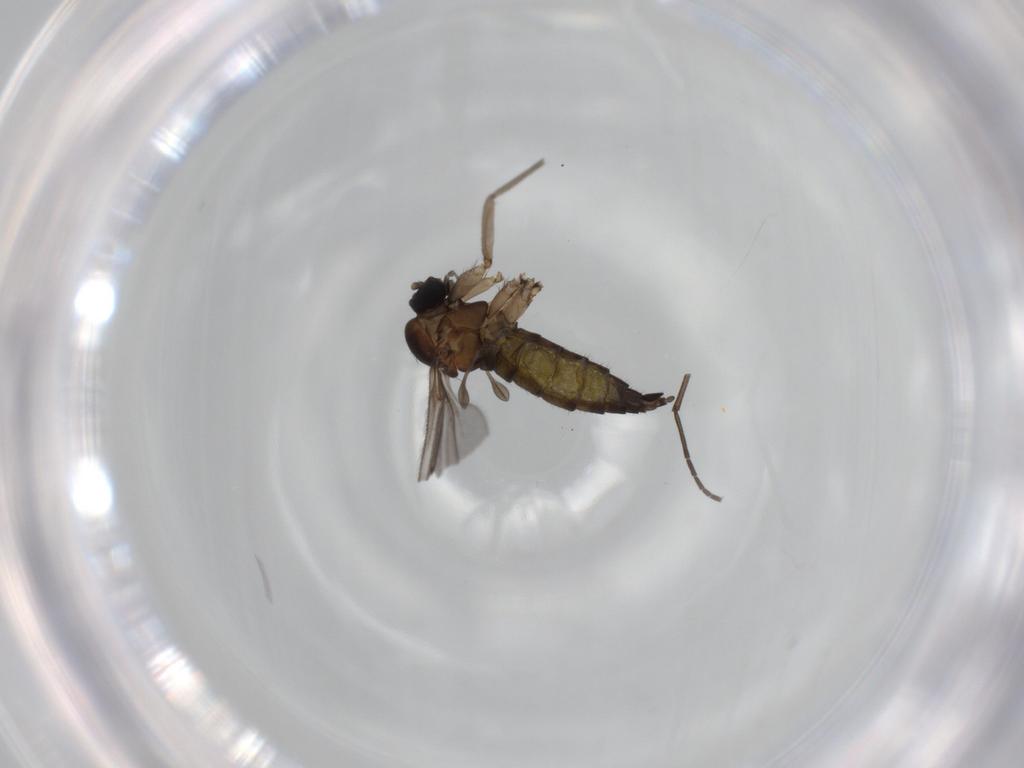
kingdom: Animalia
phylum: Arthropoda
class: Insecta
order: Diptera
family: Sciaridae
